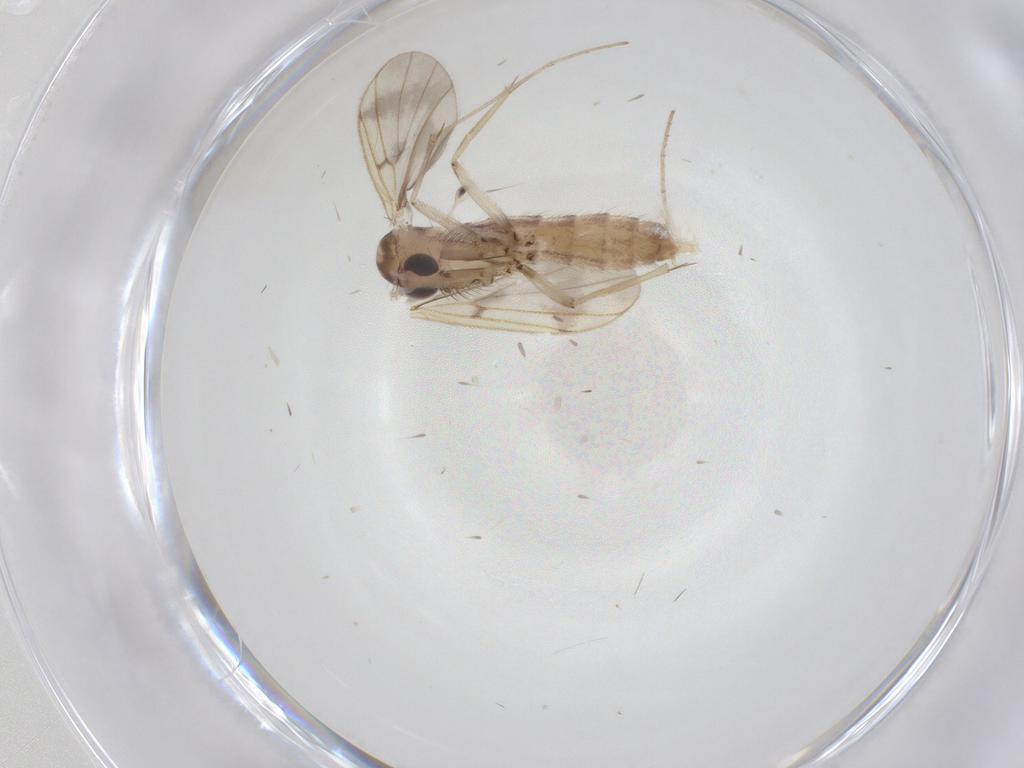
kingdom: Animalia
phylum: Arthropoda
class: Insecta
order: Diptera
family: Mycetophilidae
